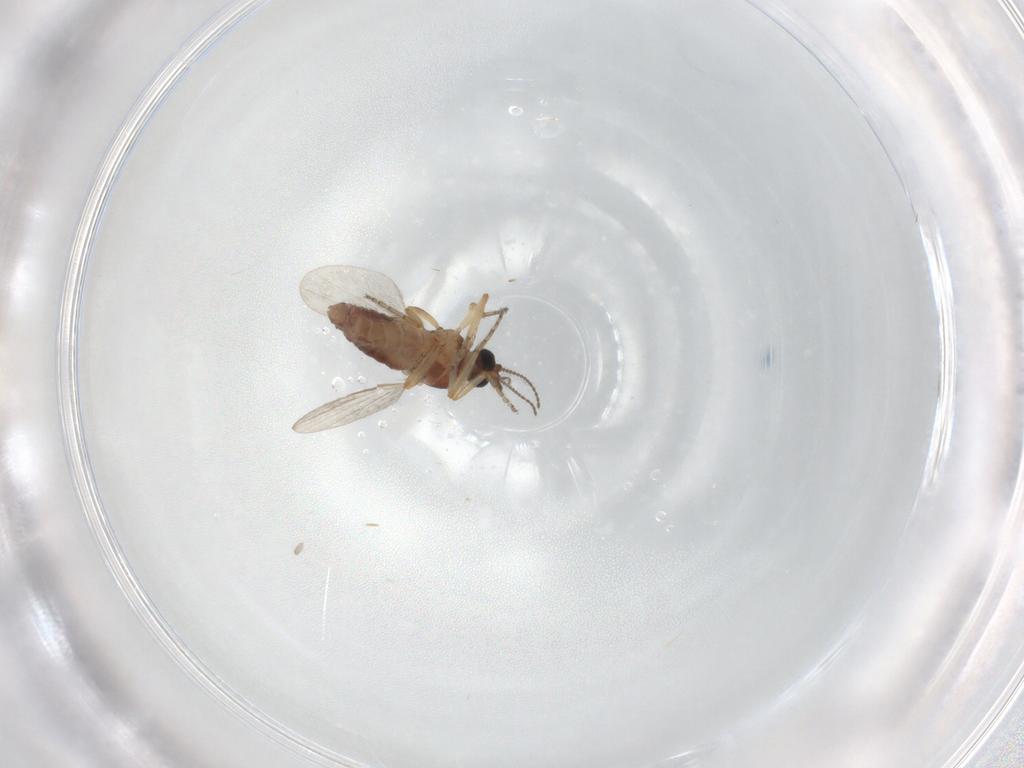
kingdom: Animalia
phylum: Arthropoda
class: Insecta
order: Diptera
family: Ceratopogonidae
